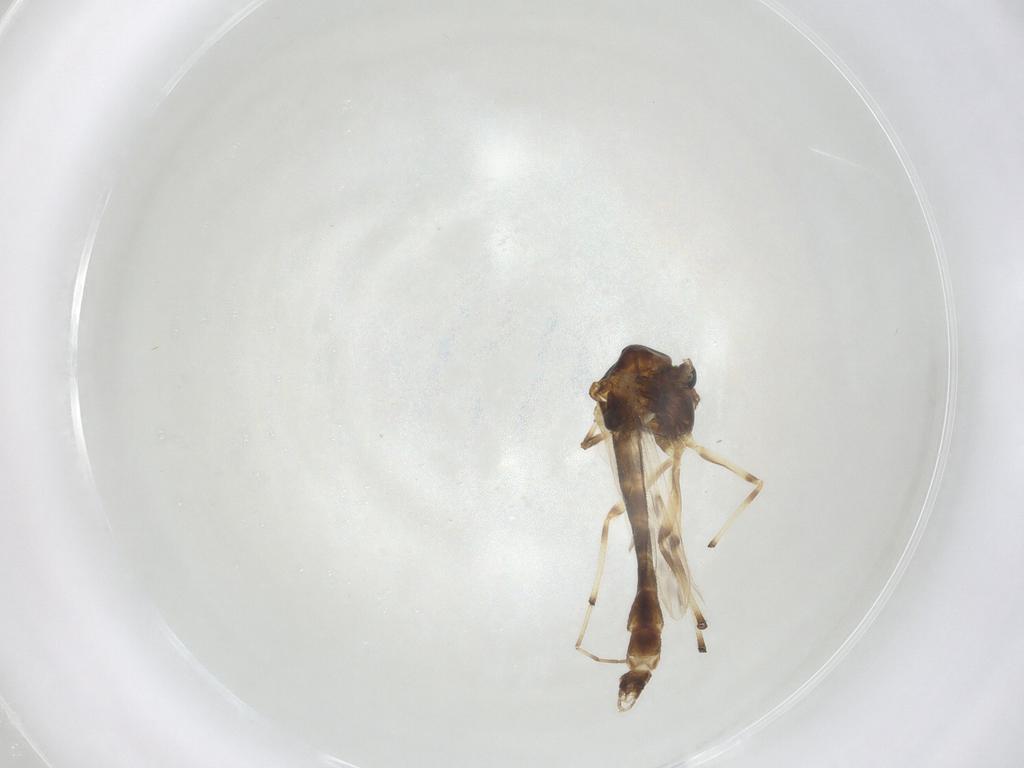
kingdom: Animalia
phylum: Arthropoda
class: Insecta
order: Diptera
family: Chironomidae
